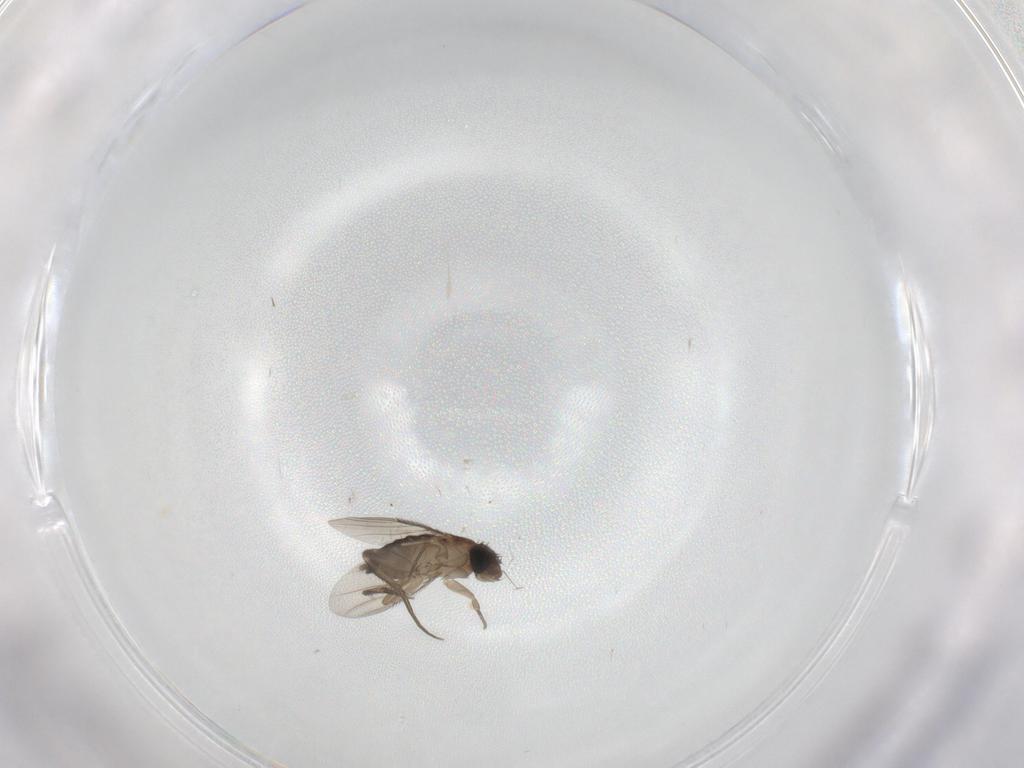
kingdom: Animalia
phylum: Arthropoda
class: Insecta
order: Diptera
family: Phoridae
